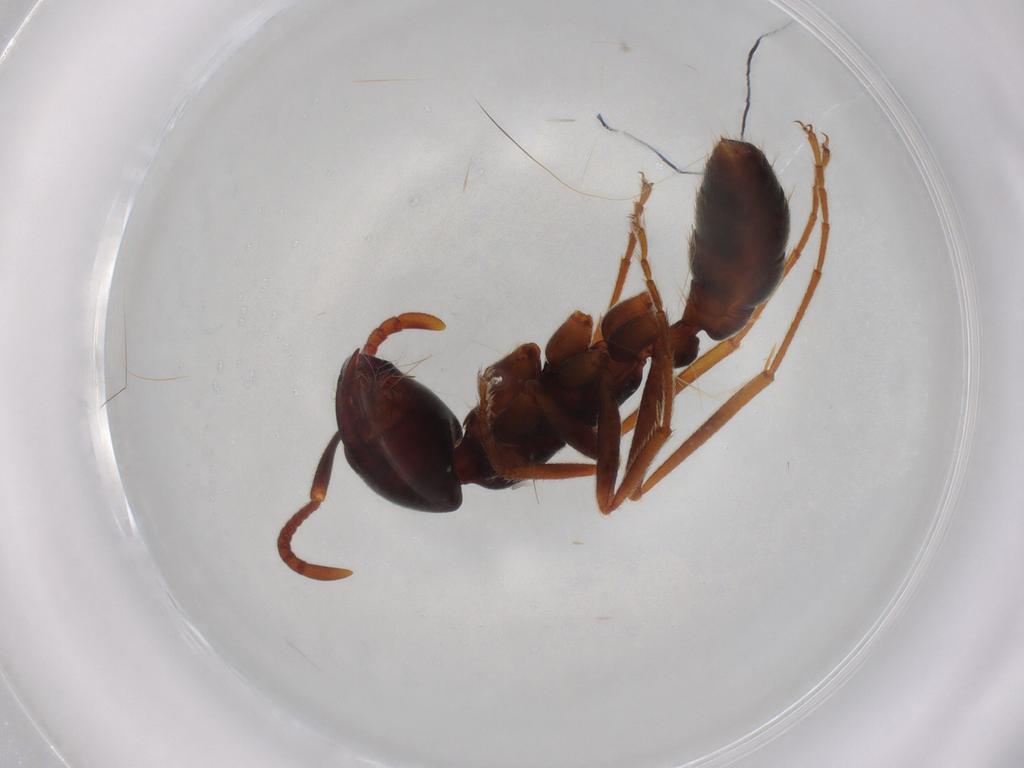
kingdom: Animalia
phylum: Arthropoda
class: Insecta
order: Hymenoptera
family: Formicidae
